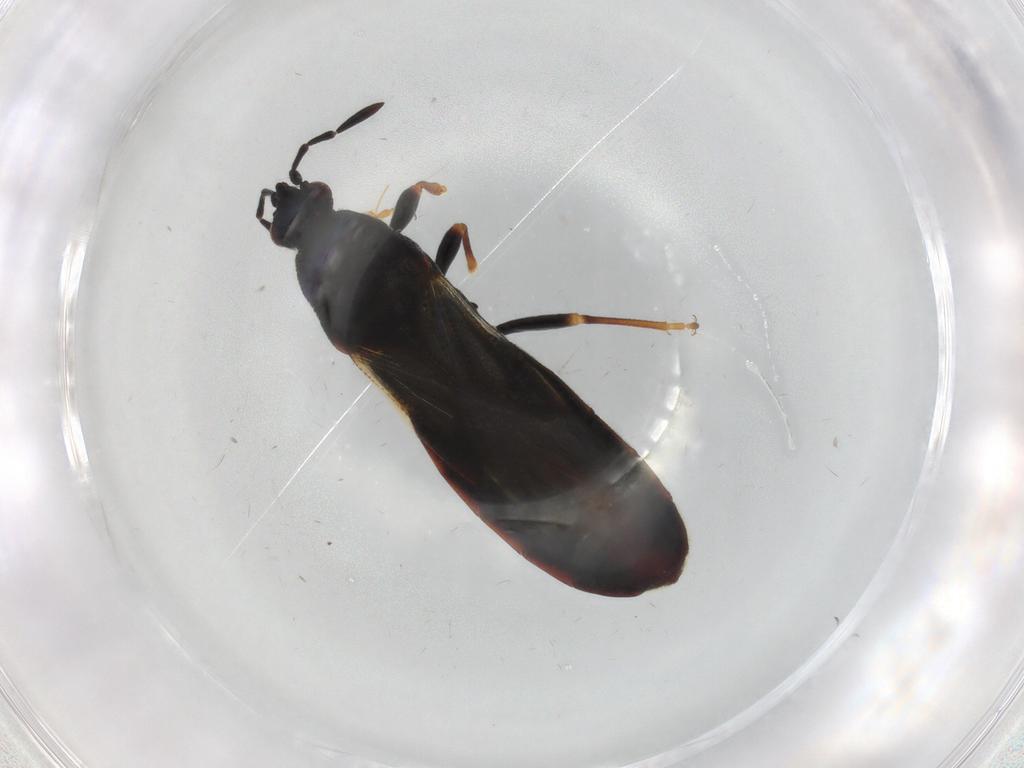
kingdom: Animalia
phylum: Arthropoda
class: Insecta
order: Hemiptera
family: Blissidae
